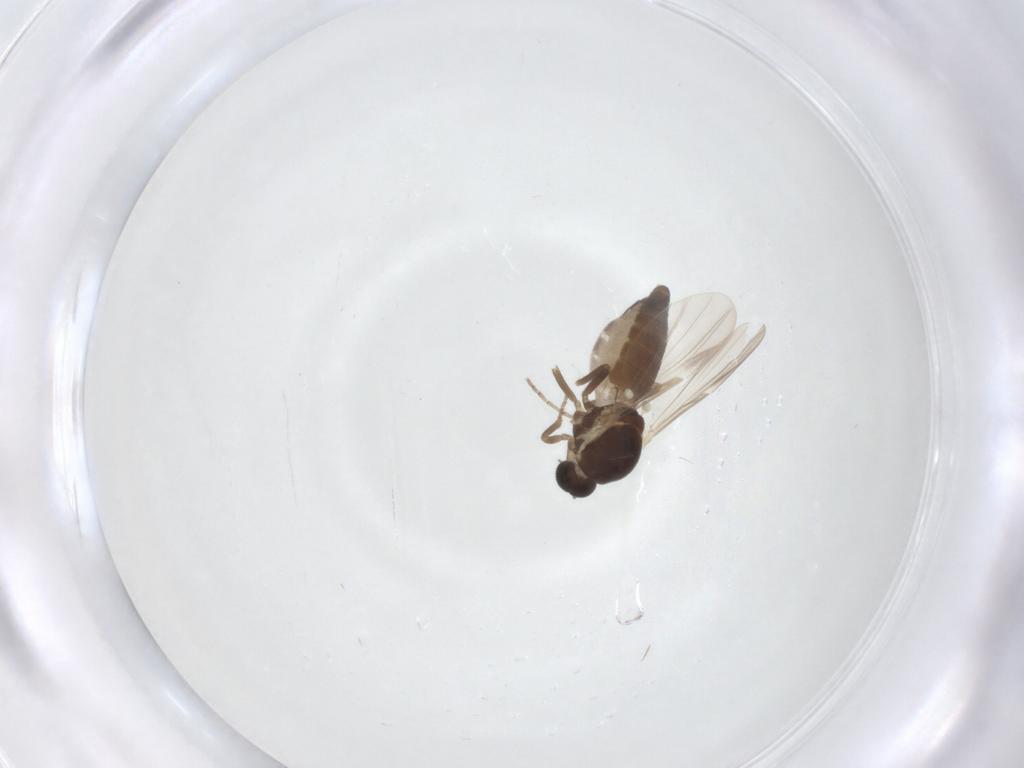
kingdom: Animalia
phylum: Arthropoda
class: Insecta
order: Diptera
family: Ceratopogonidae
